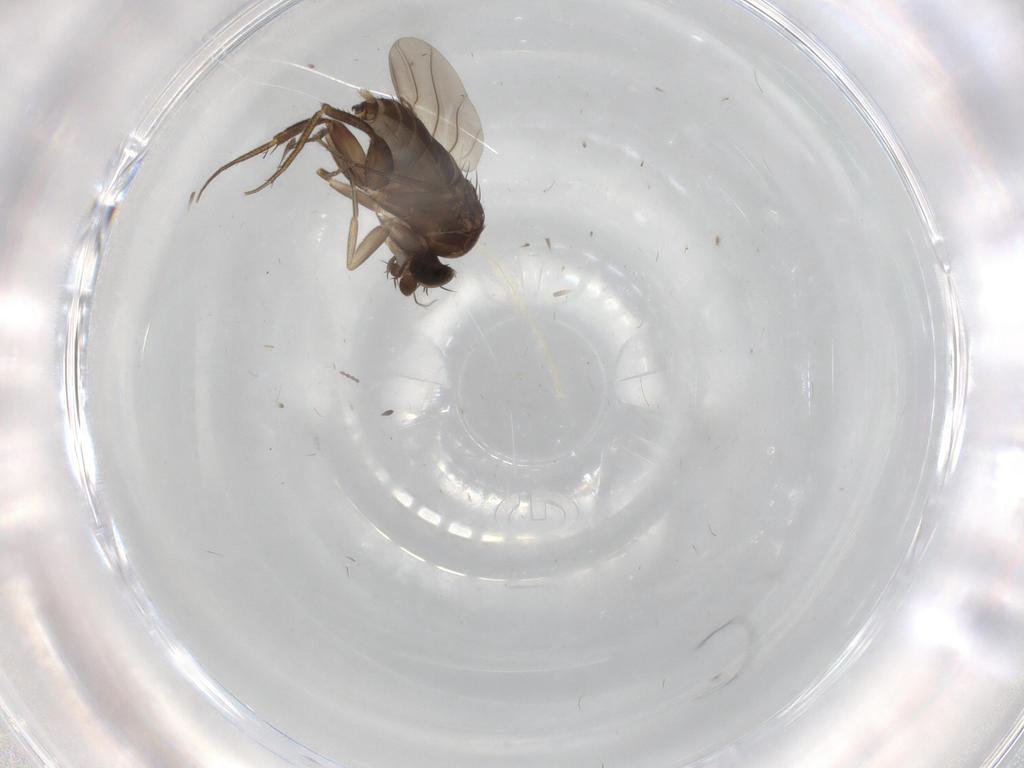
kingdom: Animalia
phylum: Arthropoda
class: Insecta
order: Diptera
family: Phoridae
